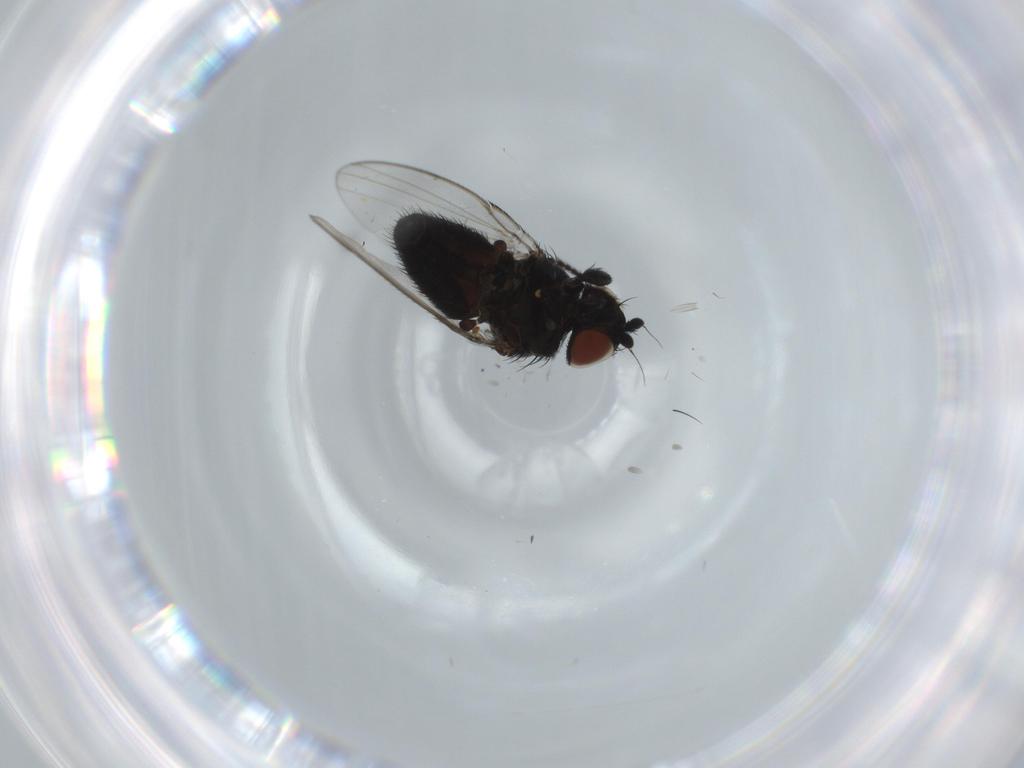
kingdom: Animalia
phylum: Arthropoda
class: Insecta
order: Diptera
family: Milichiidae
